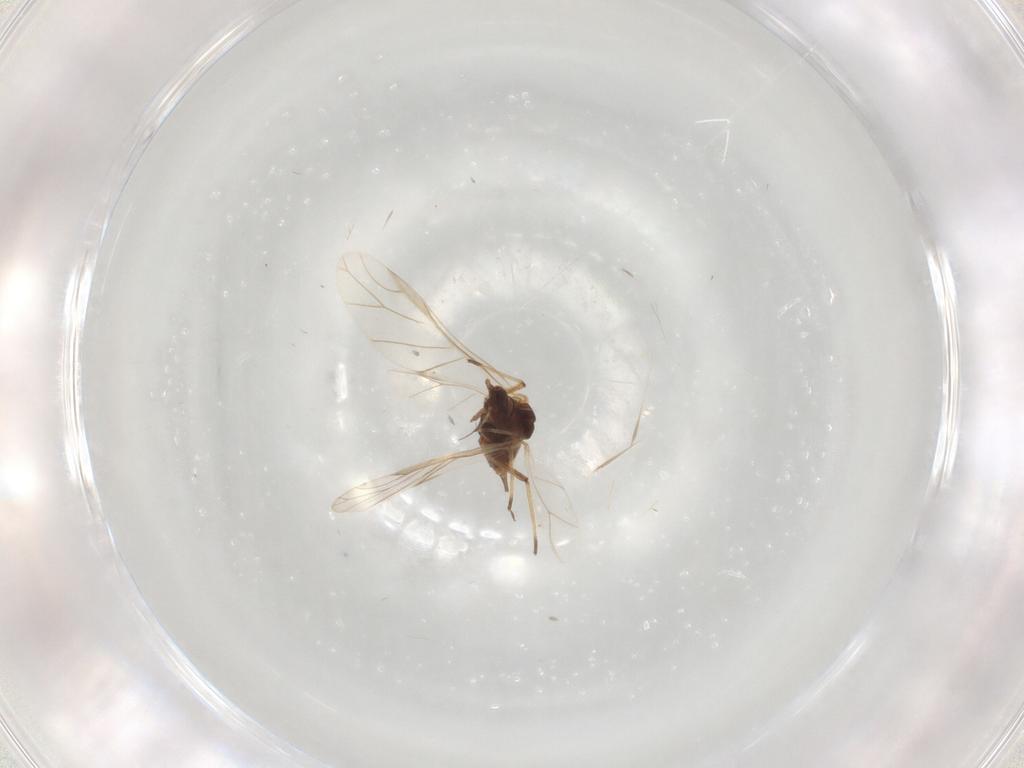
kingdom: Animalia
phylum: Arthropoda
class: Insecta
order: Hemiptera
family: Aphididae
